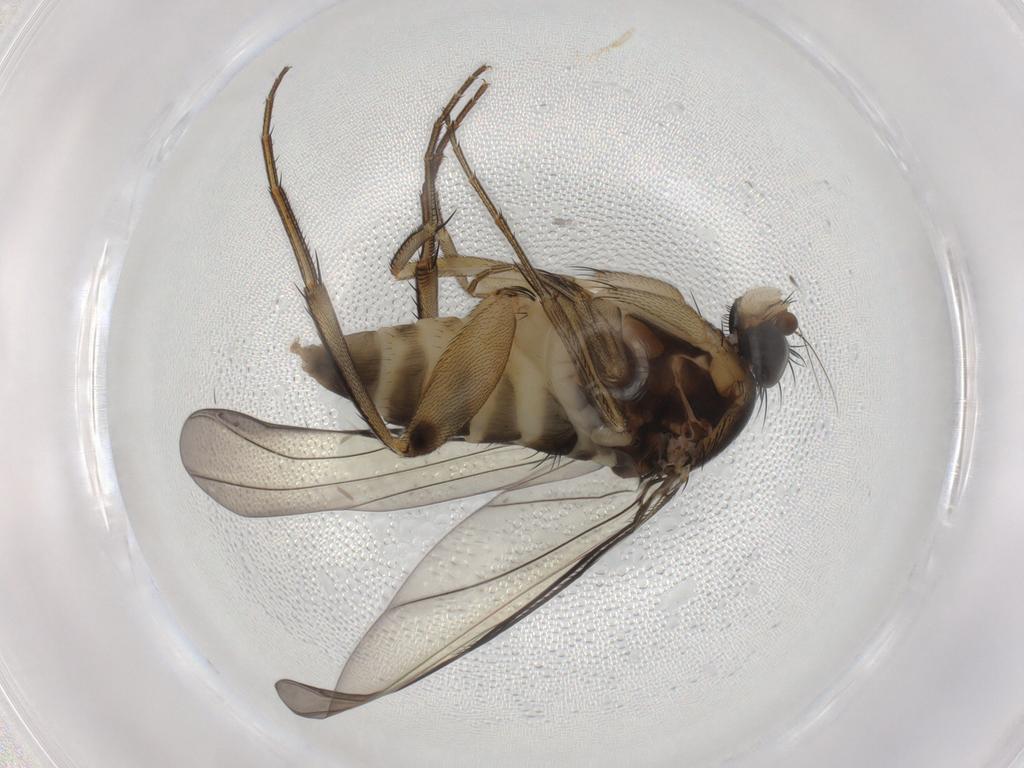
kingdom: Animalia
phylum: Arthropoda
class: Insecta
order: Diptera
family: Phoridae
